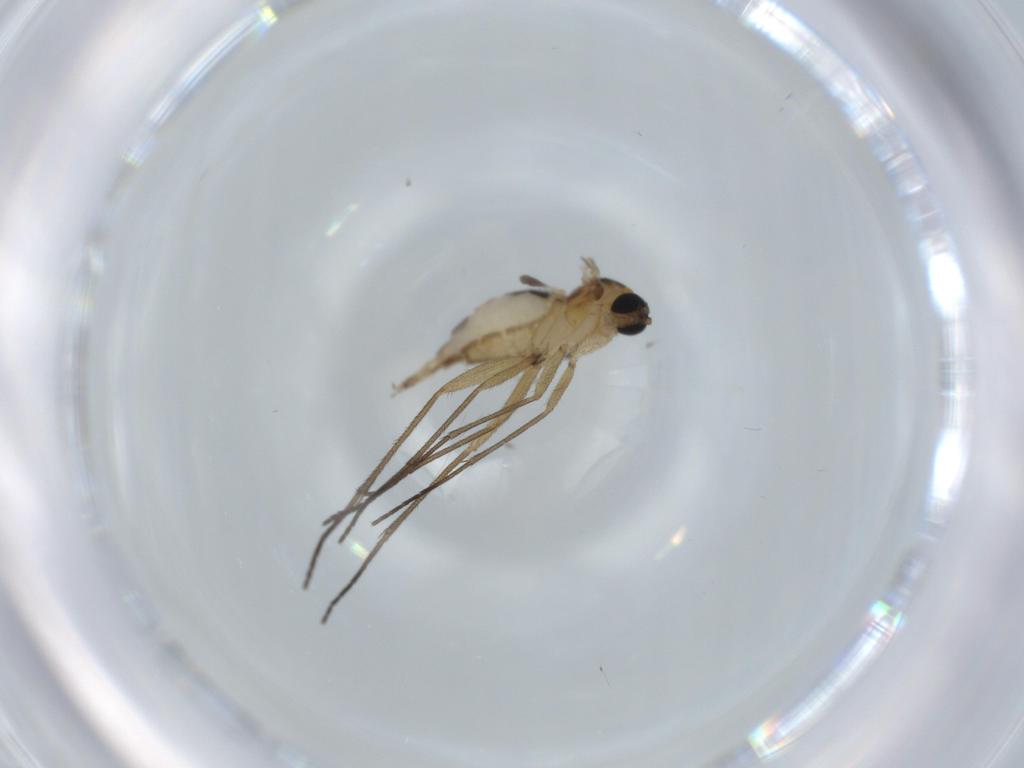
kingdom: Animalia
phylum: Arthropoda
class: Insecta
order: Diptera
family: Sciaridae
